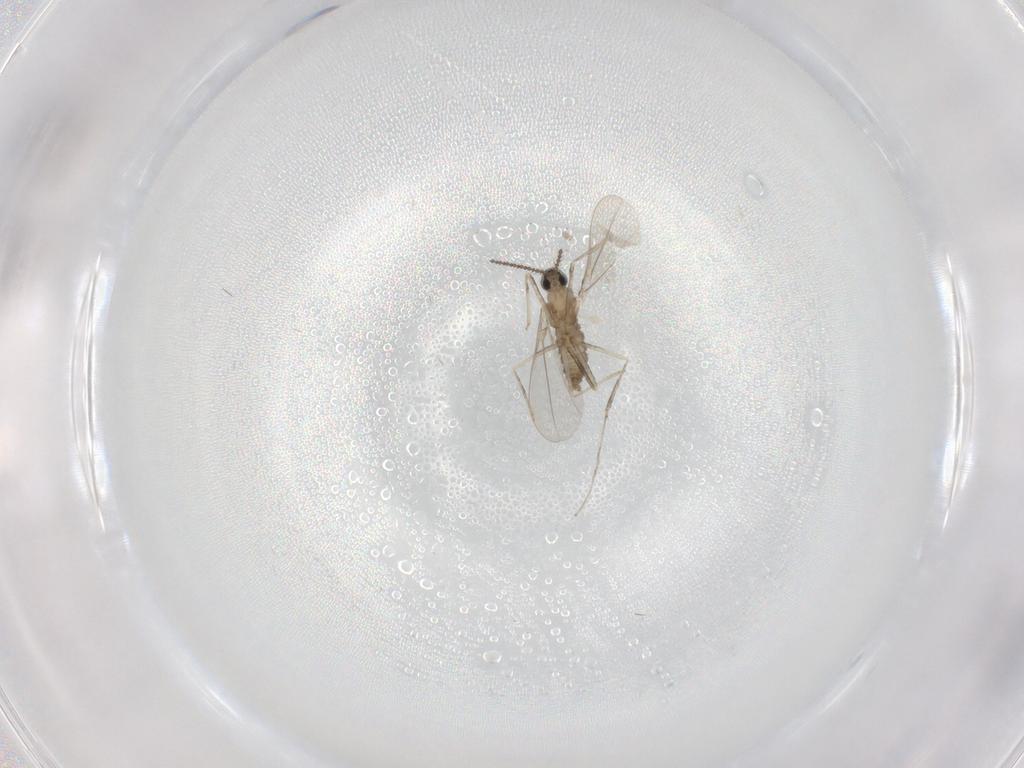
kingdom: Animalia
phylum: Arthropoda
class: Insecta
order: Diptera
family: Cecidomyiidae
